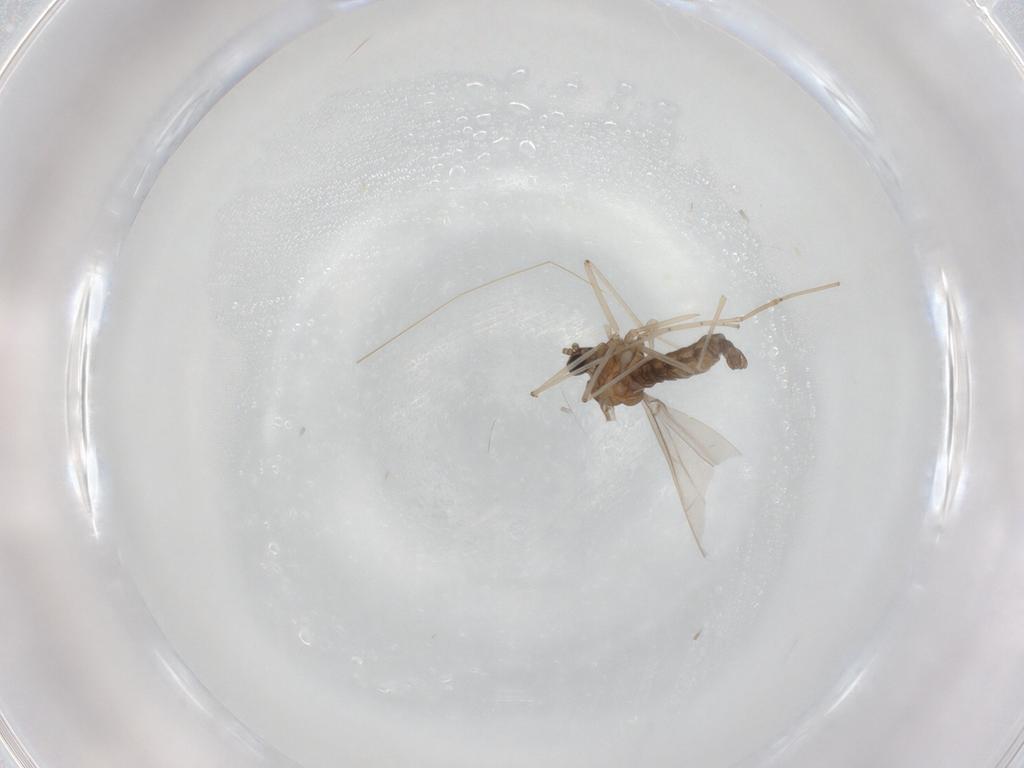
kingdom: Animalia
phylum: Arthropoda
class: Insecta
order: Diptera
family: Cecidomyiidae
